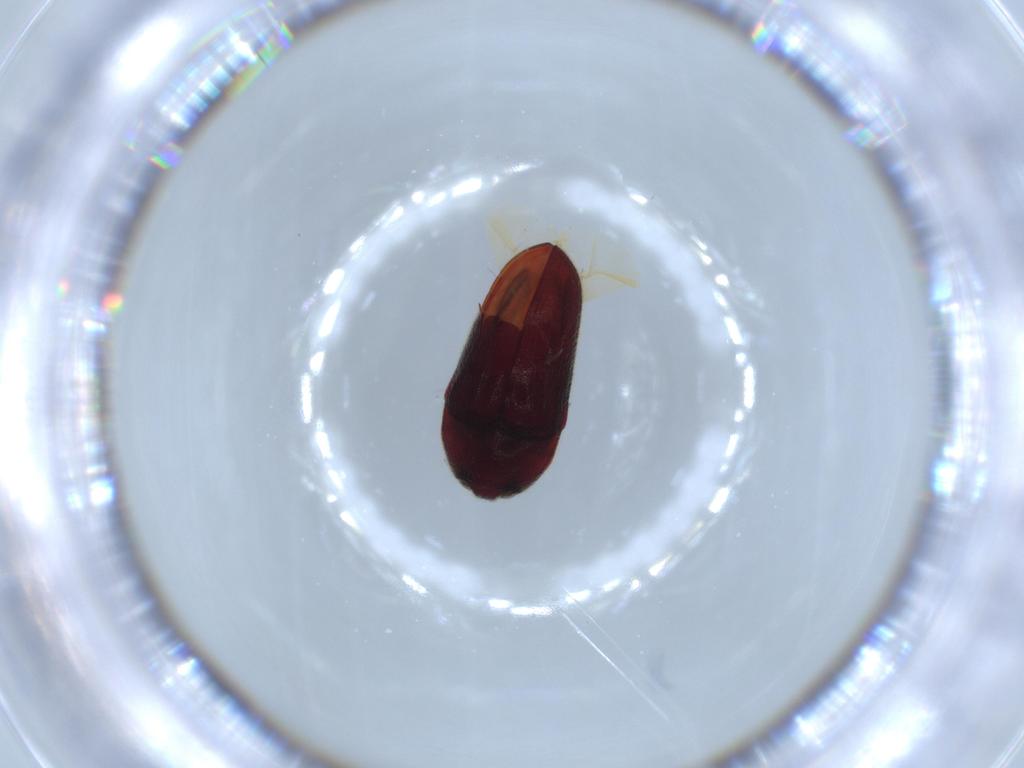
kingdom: Animalia
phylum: Arthropoda
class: Insecta
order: Coleoptera
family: Throscidae
